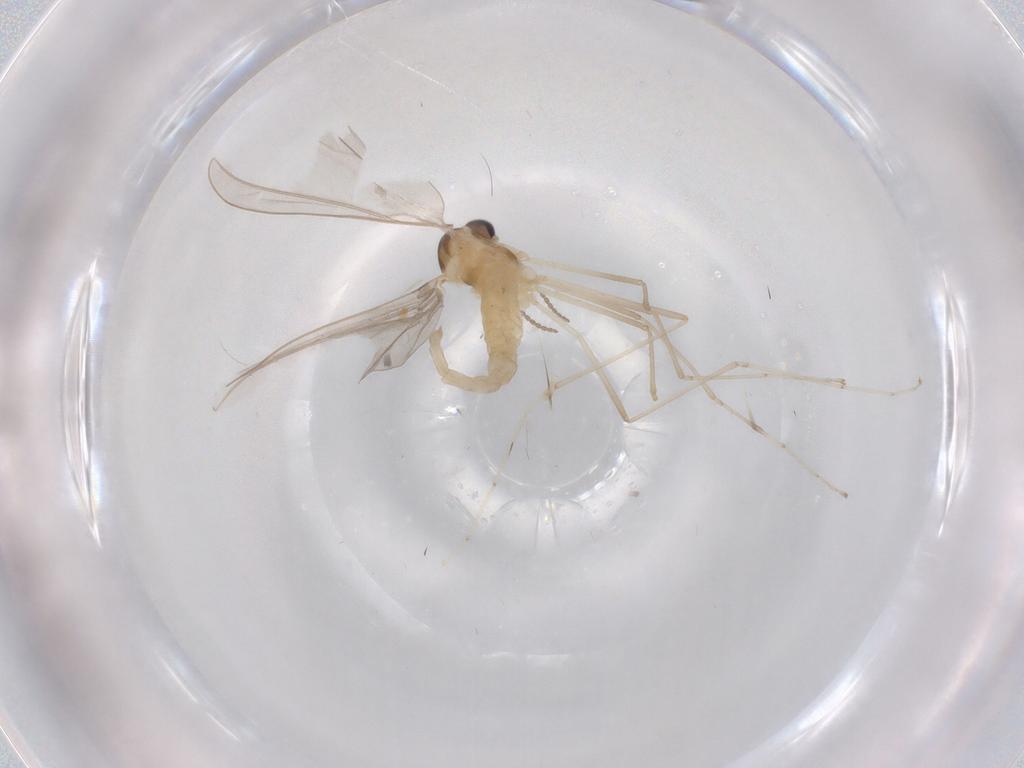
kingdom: Animalia
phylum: Arthropoda
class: Insecta
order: Diptera
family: Cecidomyiidae
